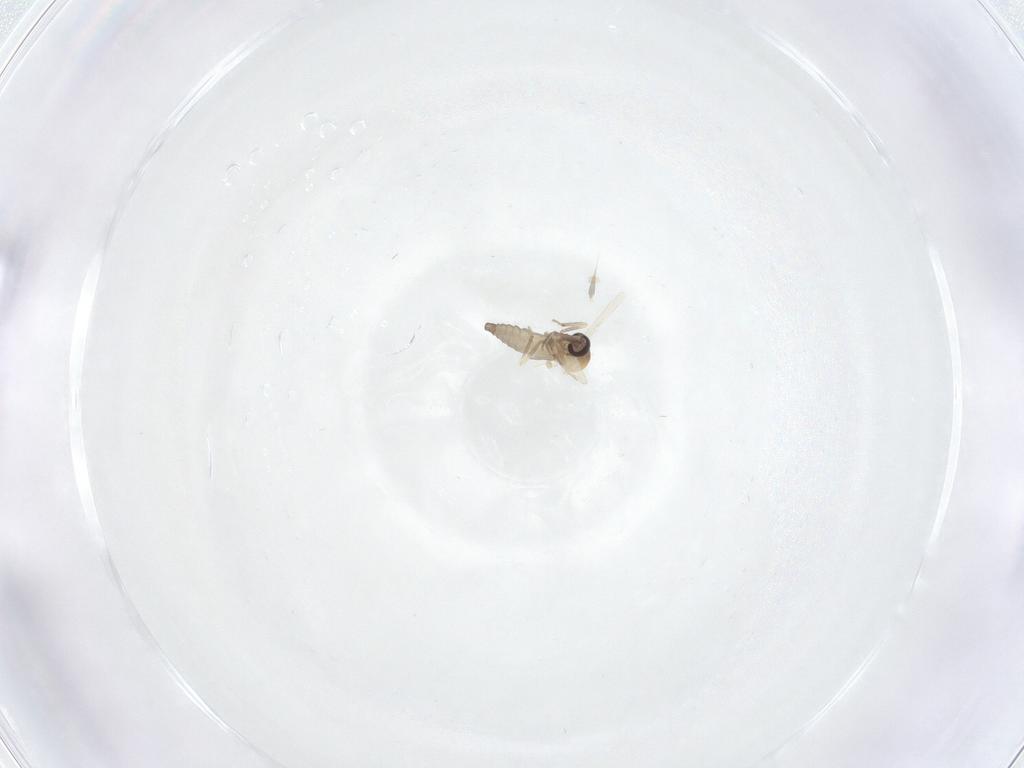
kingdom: Animalia
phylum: Arthropoda
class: Insecta
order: Diptera
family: Ceratopogonidae
